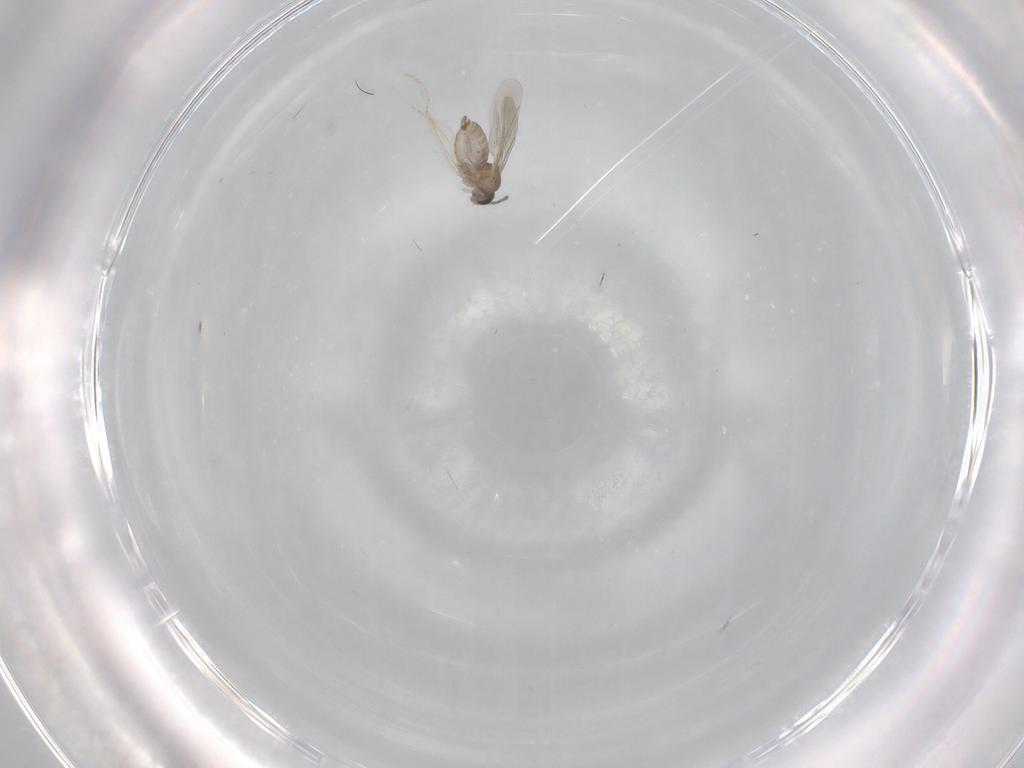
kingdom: Animalia
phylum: Arthropoda
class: Insecta
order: Diptera
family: Cecidomyiidae
